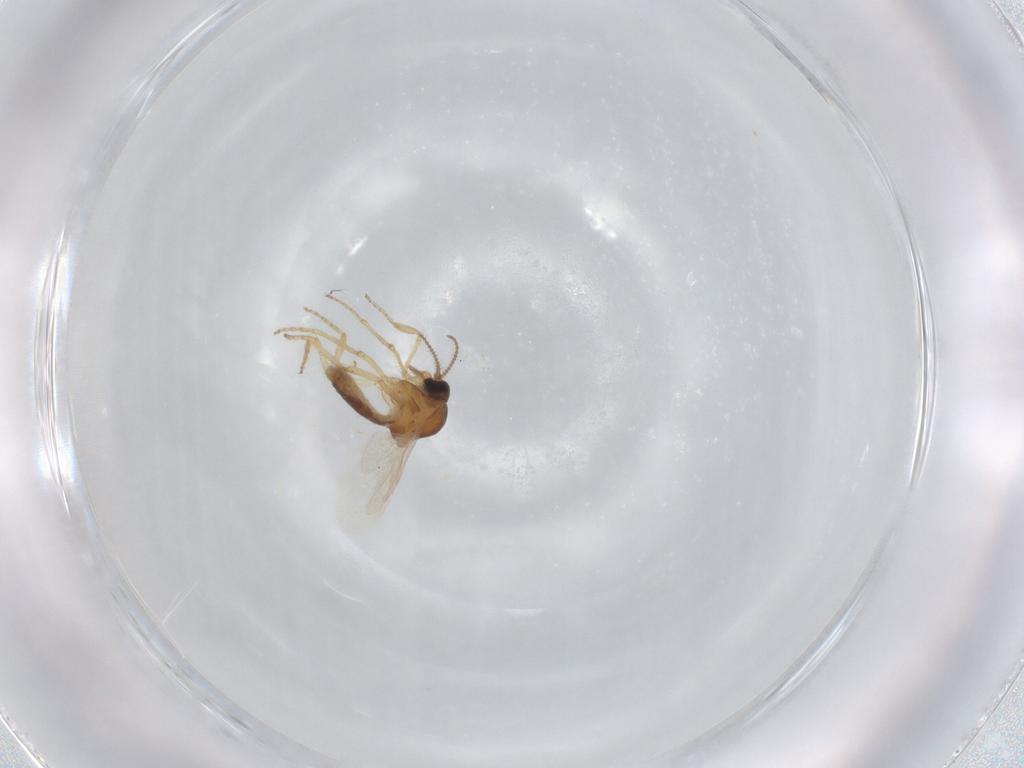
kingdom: Animalia
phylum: Arthropoda
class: Insecta
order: Diptera
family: Ceratopogonidae
